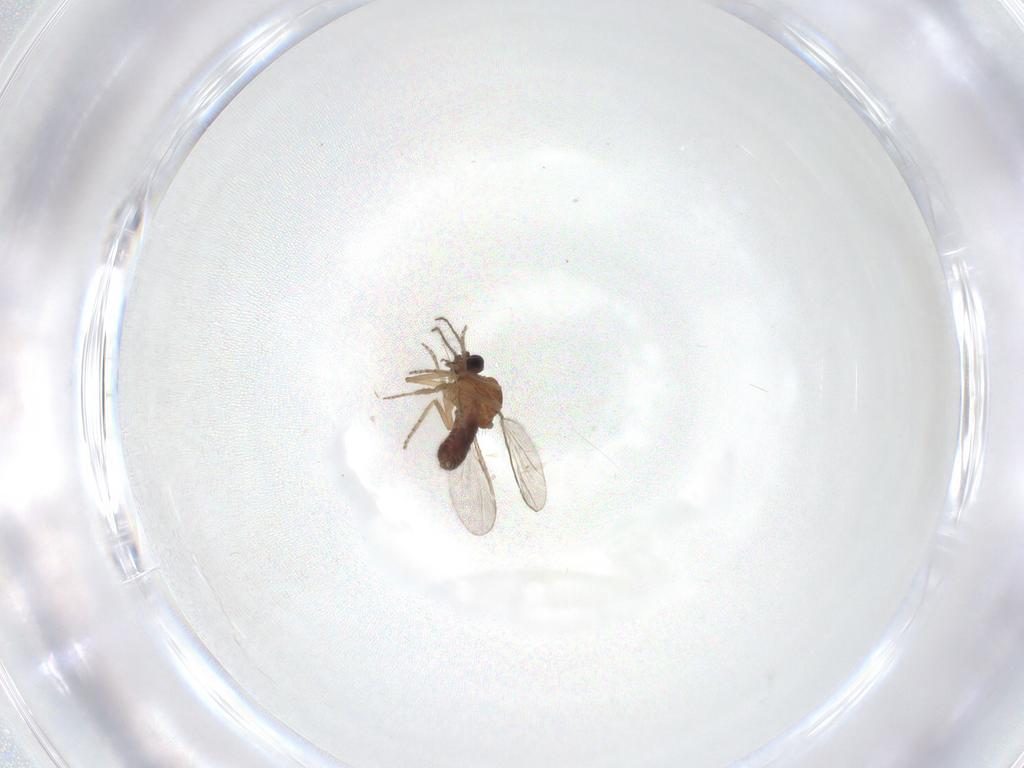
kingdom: Animalia
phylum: Arthropoda
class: Insecta
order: Diptera
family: Ceratopogonidae
